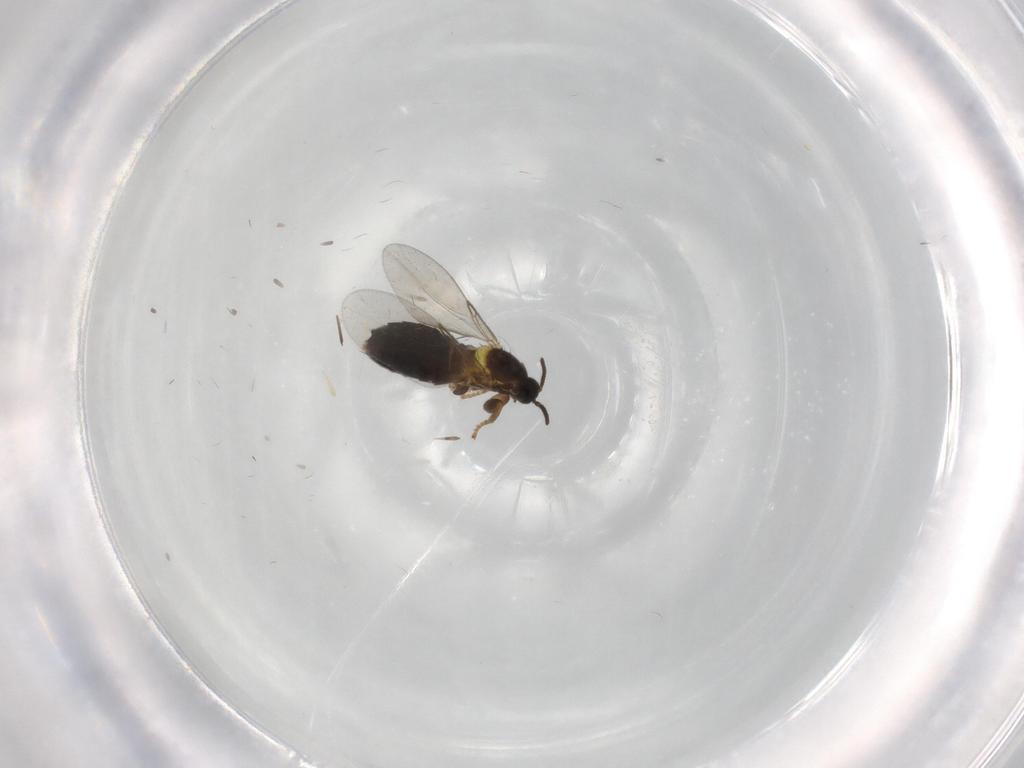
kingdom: Animalia
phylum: Arthropoda
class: Insecta
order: Diptera
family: Scatopsidae
